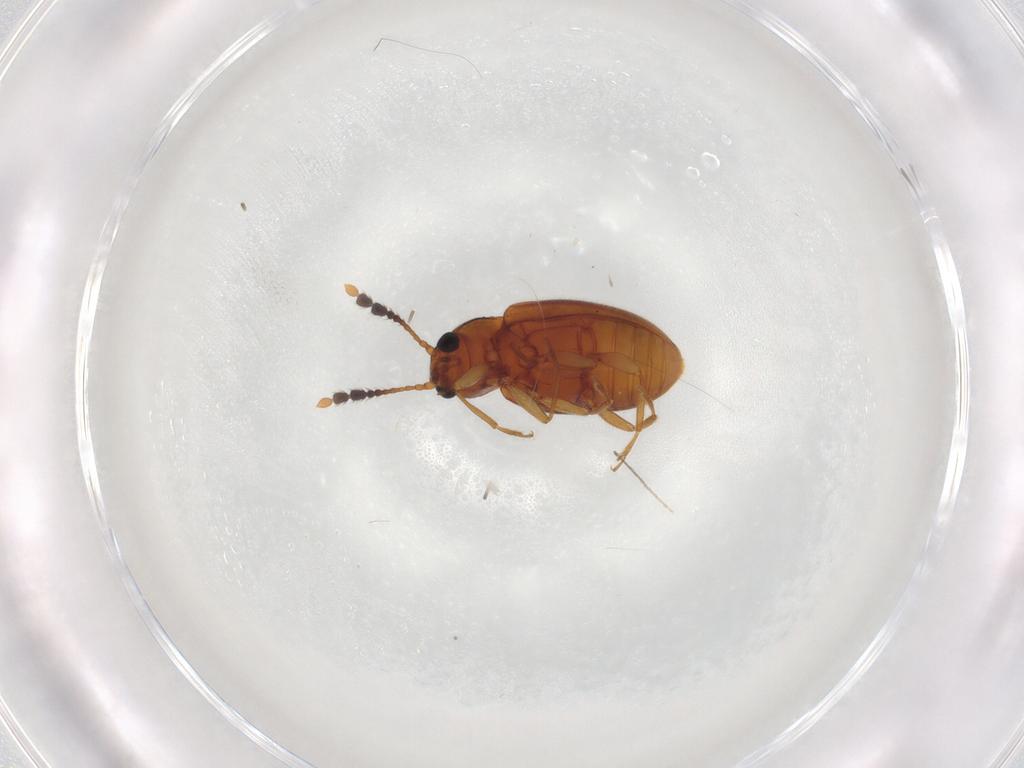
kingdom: Animalia
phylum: Arthropoda
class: Insecta
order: Coleoptera
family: Erotylidae
